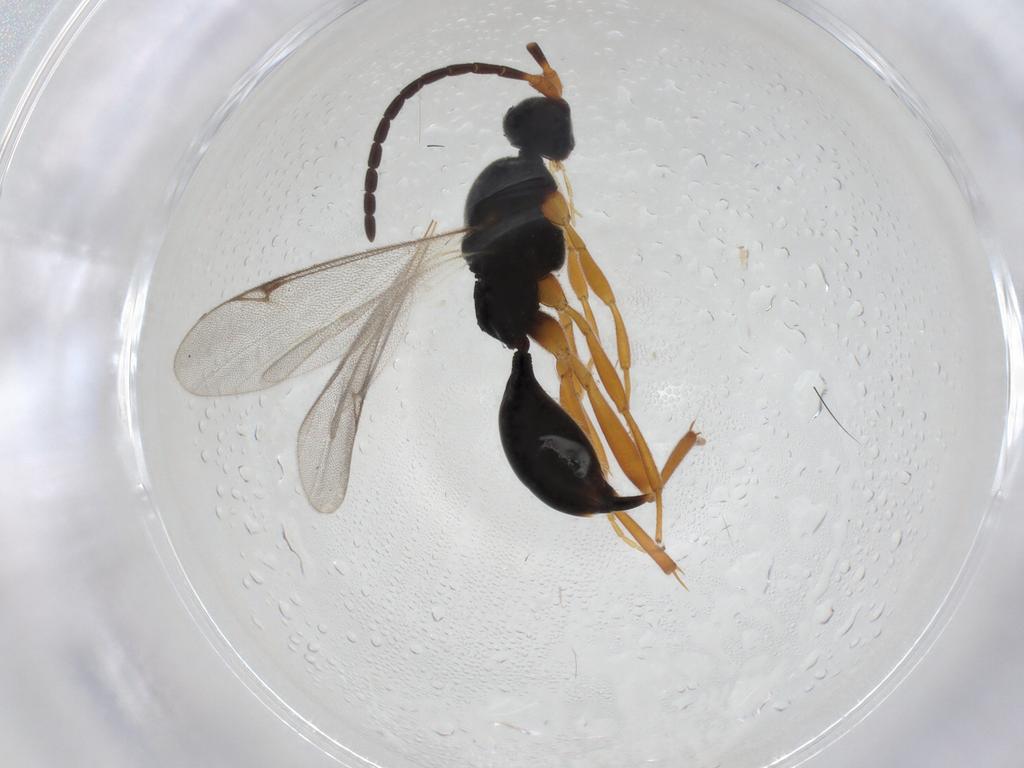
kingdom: Animalia
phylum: Arthropoda
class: Insecta
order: Hymenoptera
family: Proctotrupidae
